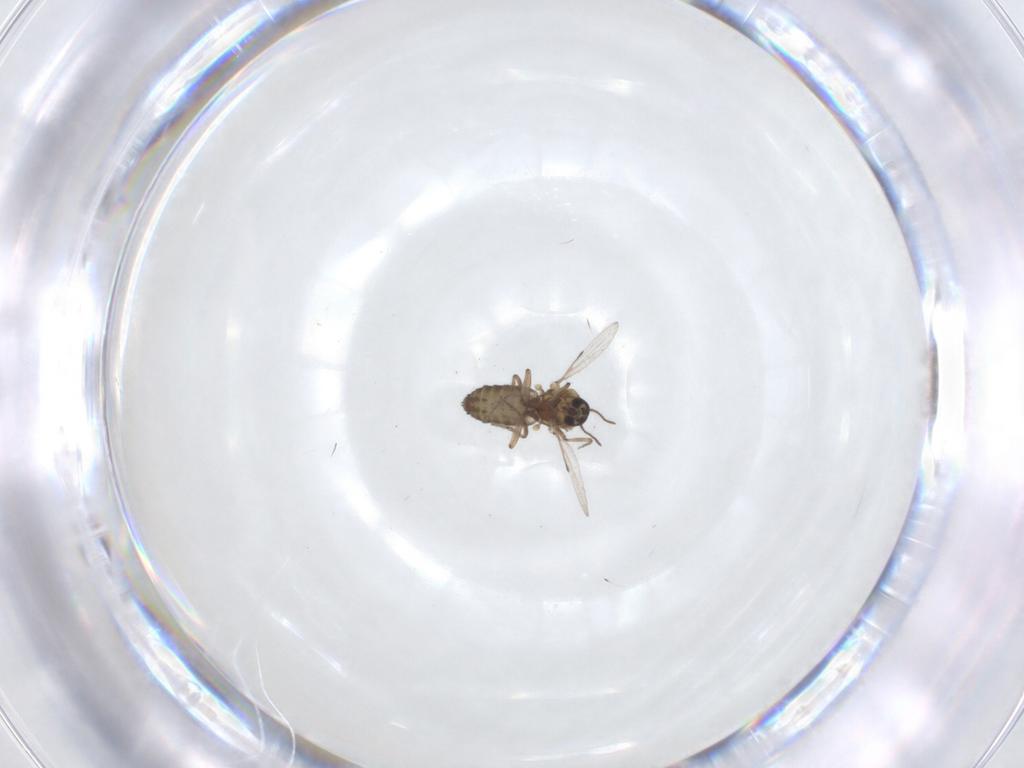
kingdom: Animalia
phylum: Arthropoda
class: Insecta
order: Diptera
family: Ceratopogonidae
